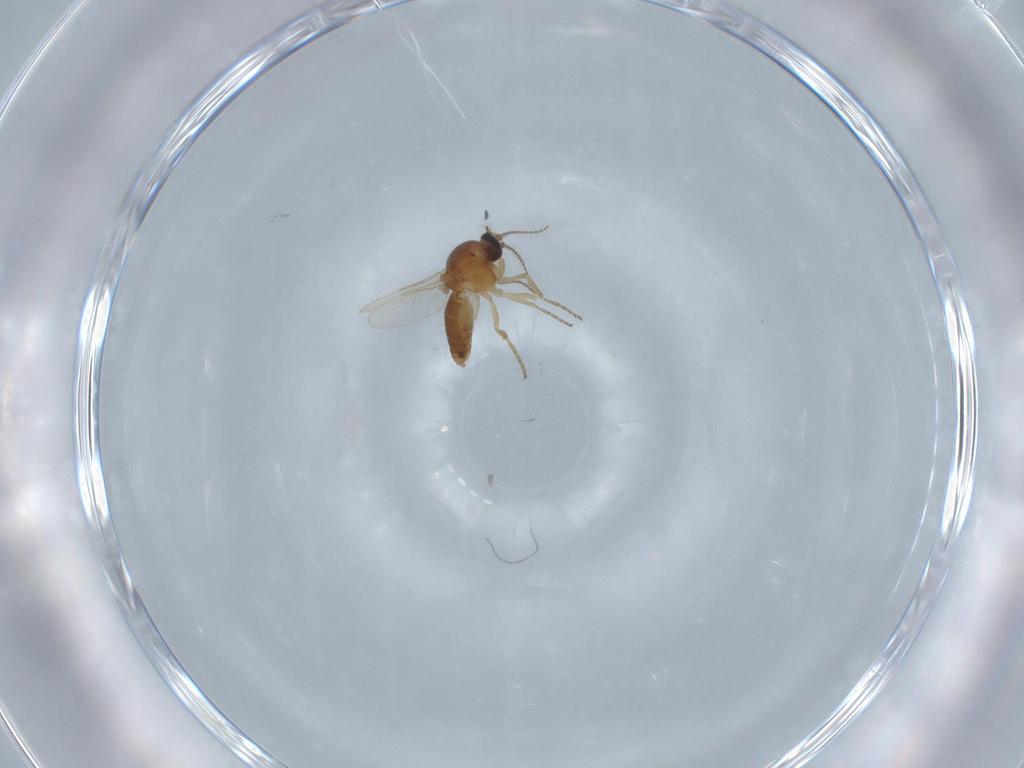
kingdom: Animalia
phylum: Arthropoda
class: Insecta
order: Diptera
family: Ceratopogonidae
